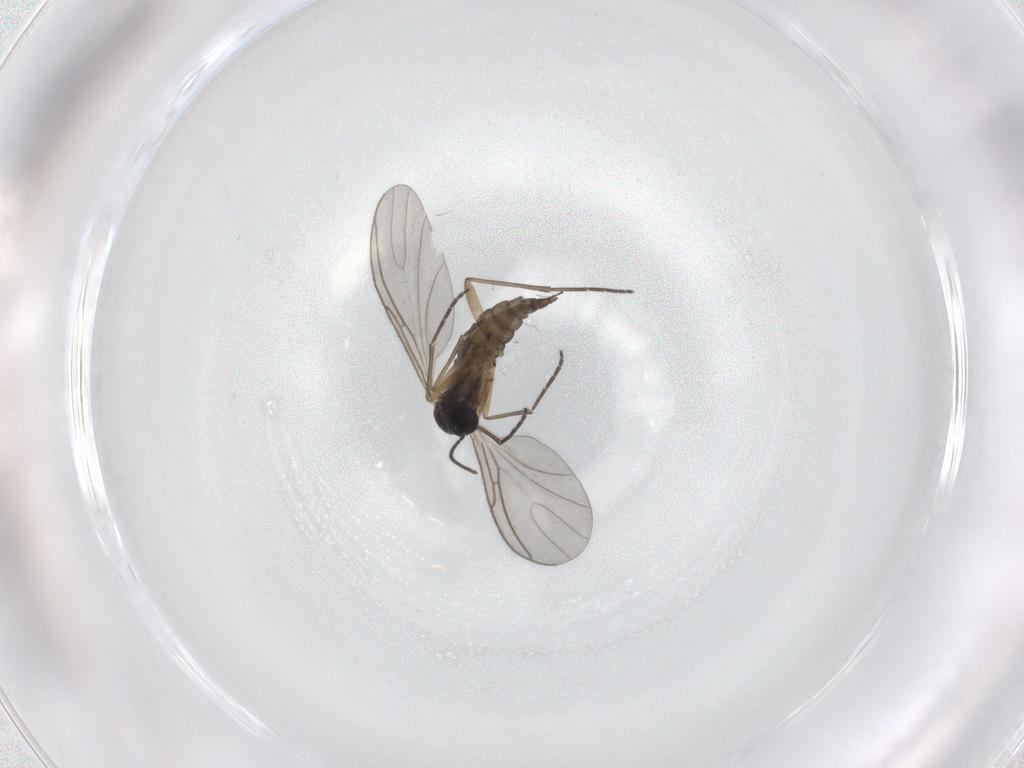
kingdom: Animalia
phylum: Arthropoda
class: Insecta
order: Diptera
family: Sciaridae
